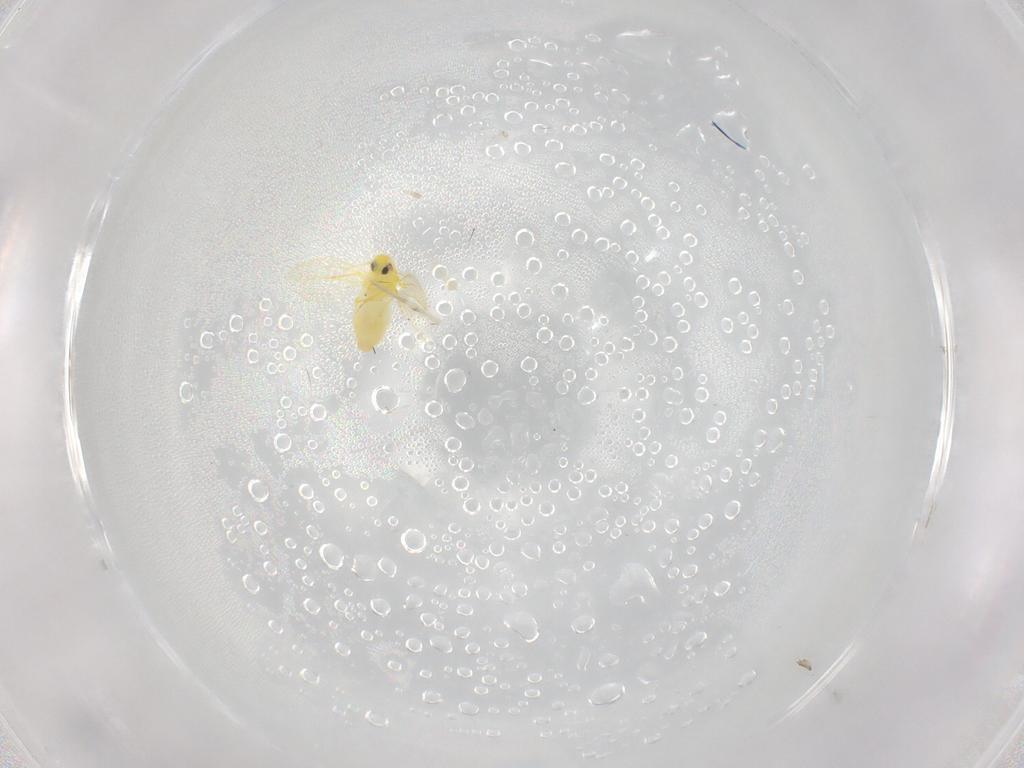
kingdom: Animalia
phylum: Arthropoda
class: Insecta
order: Hemiptera
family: Aleyrodidae
